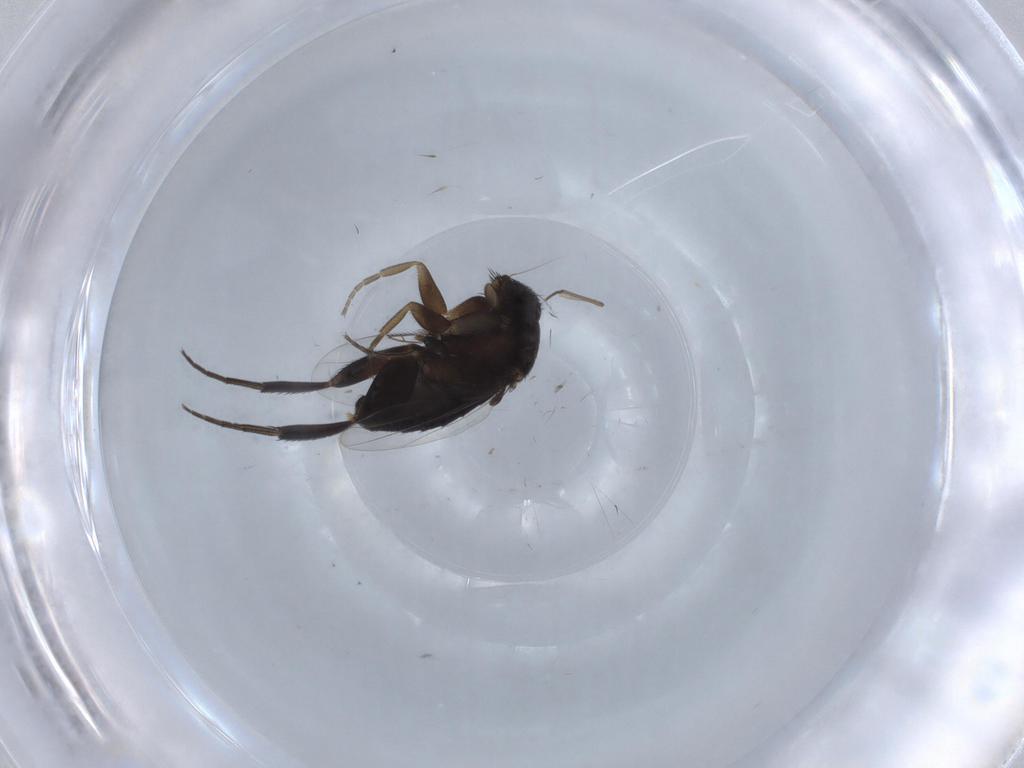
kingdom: Animalia
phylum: Arthropoda
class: Insecta
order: Diptera
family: Phoridae
